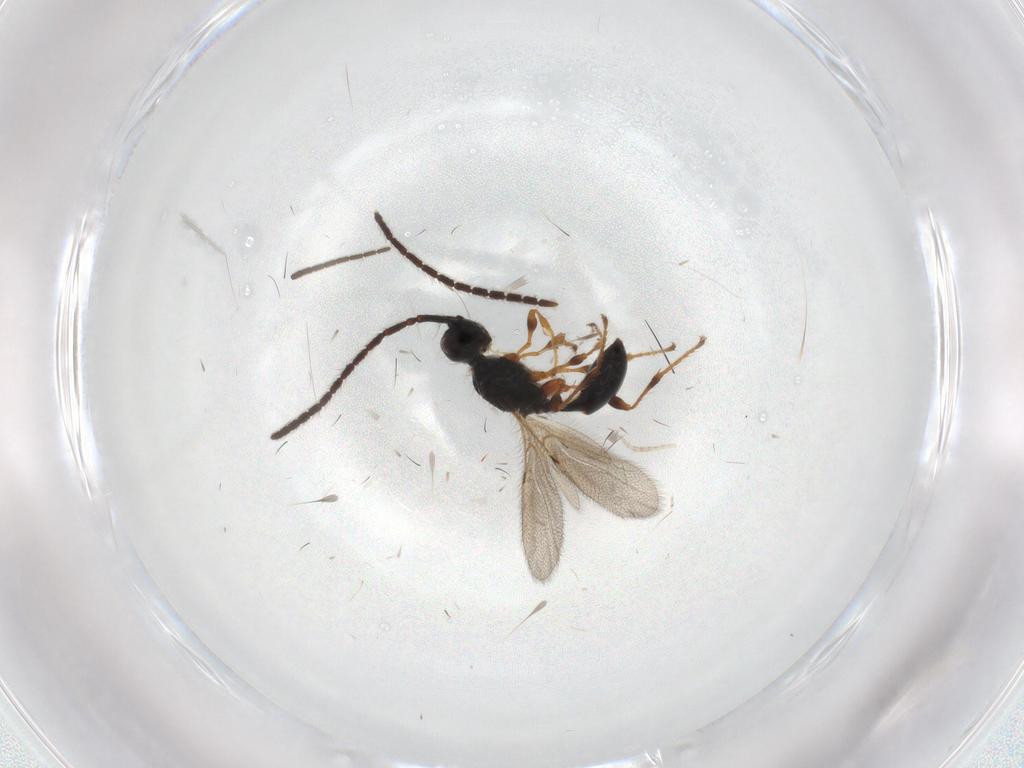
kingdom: Animalia
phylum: Arthropoda
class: Insecta
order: Hymenoptera
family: Diapriidae
